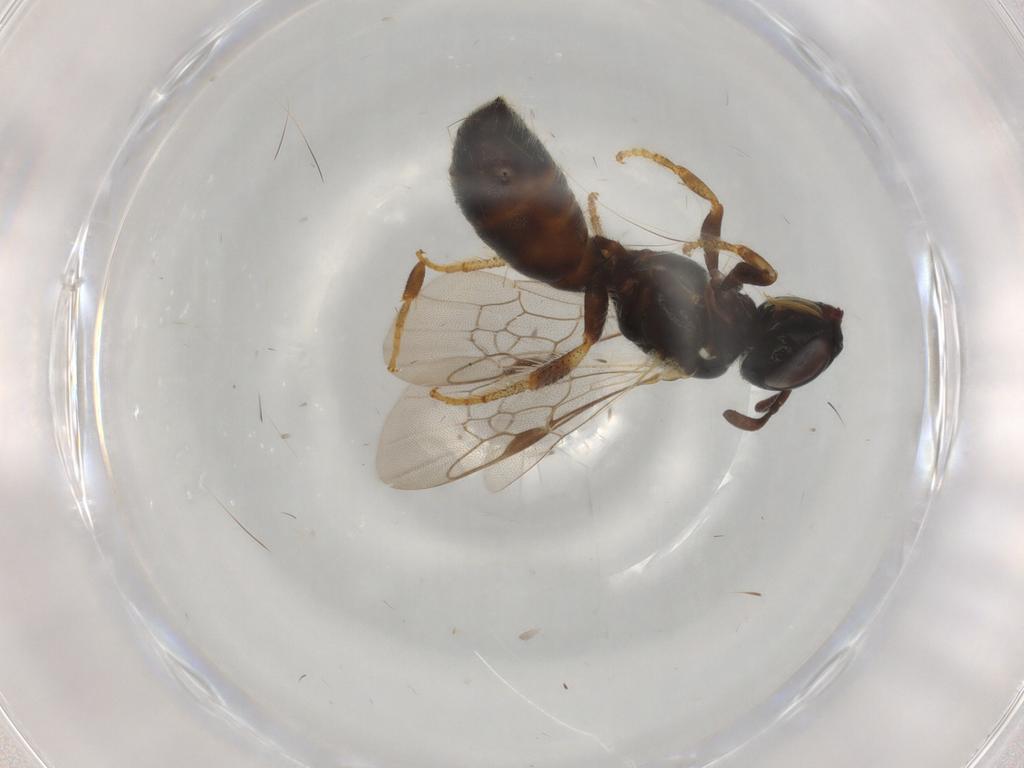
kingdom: Animalia
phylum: Arthropoda
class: Insecta
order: Hymenoptera
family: Apidae
